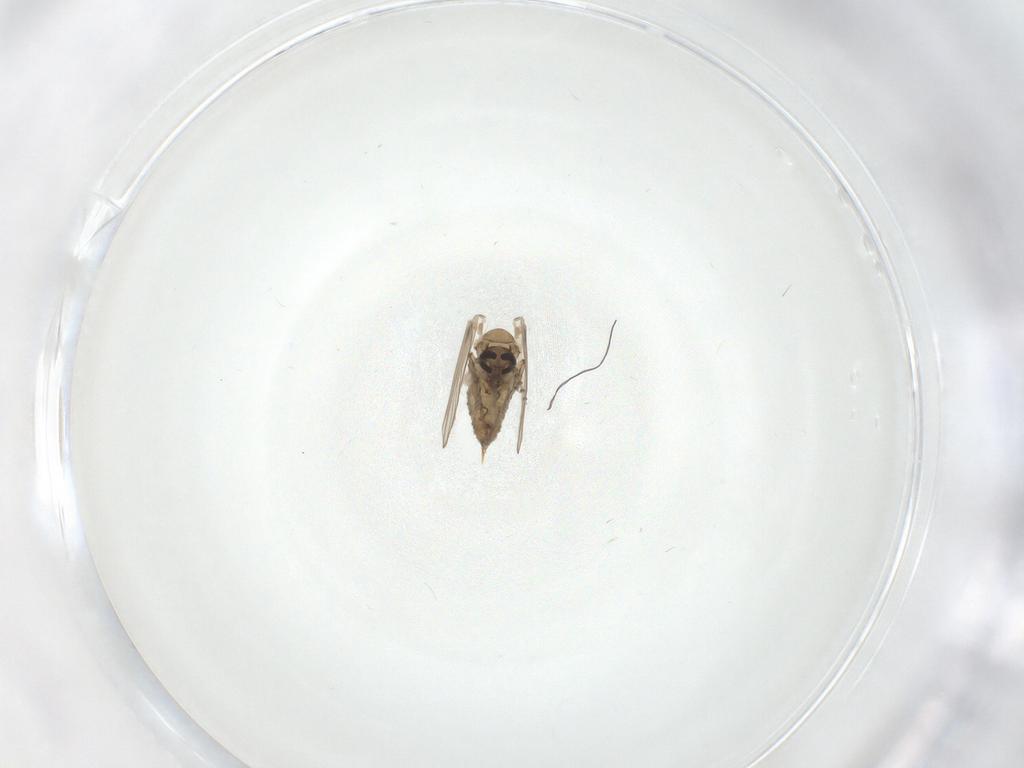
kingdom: Animalia
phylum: Arthropoda
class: Insecta
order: Diptera
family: Psychodidae
